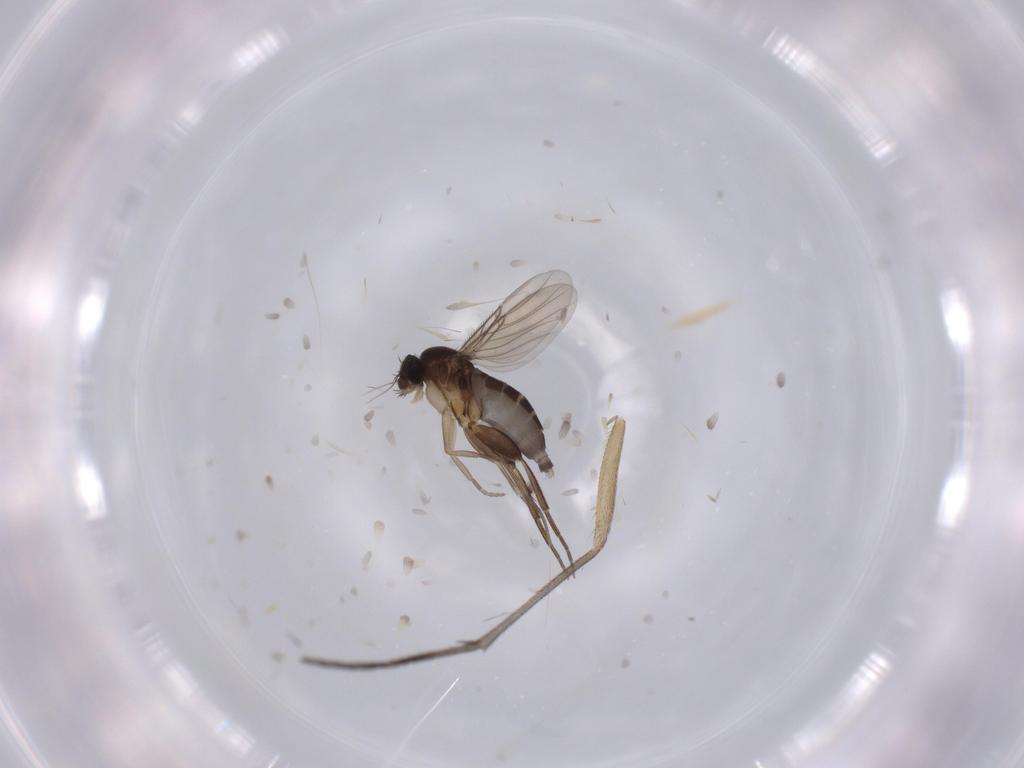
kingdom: Animalia
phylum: Arthropoda
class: Insecta
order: Diptera
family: Phoridae
